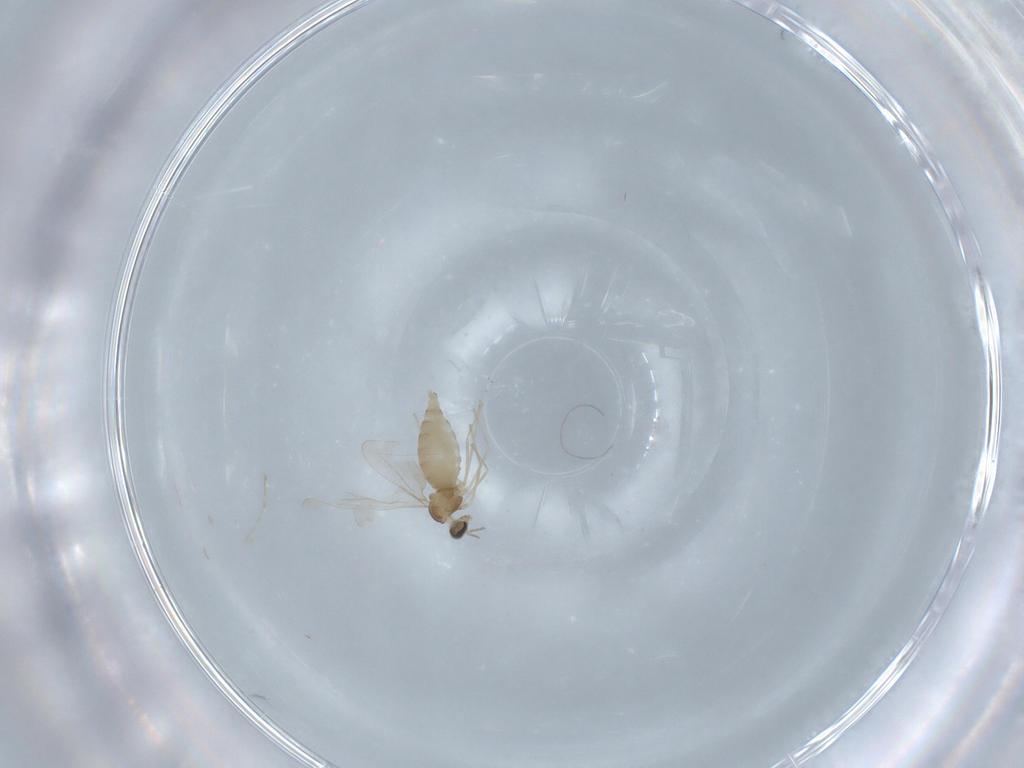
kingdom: Animalia
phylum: Arthropoda
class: Insecta
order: Diptera
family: Cecidomyiidae
